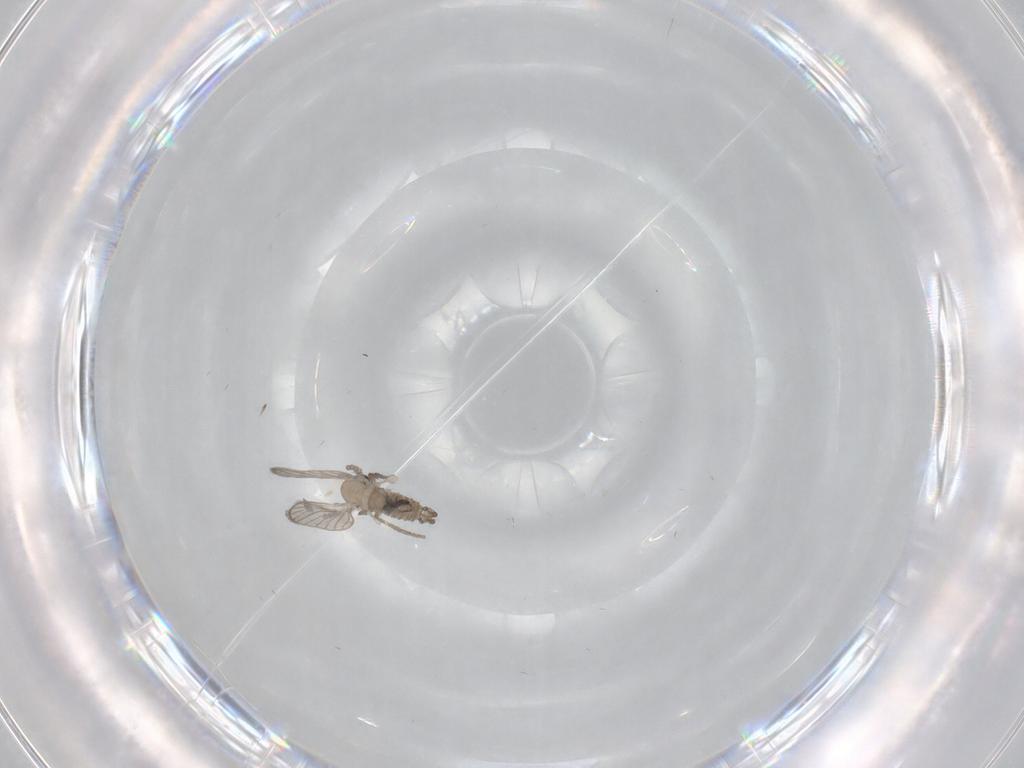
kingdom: Animalia
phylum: Arthropoda
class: Insecta
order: Diptera
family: Psychodidae
